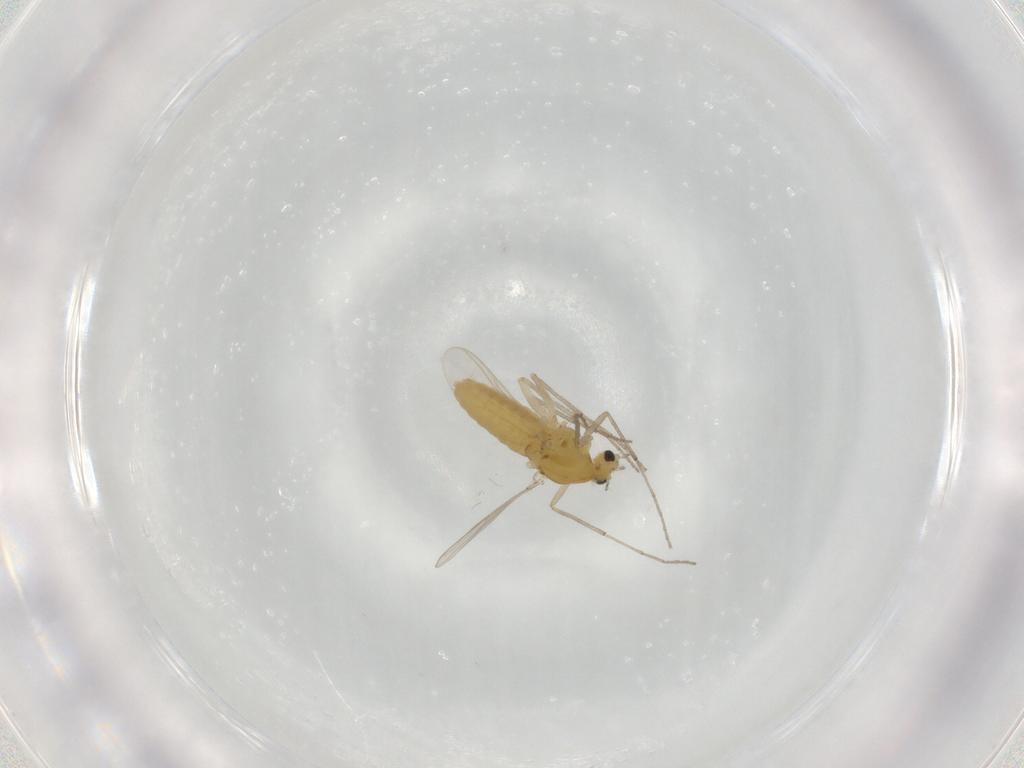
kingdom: Animalia
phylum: Arthropoda
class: Insecta
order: Diptera
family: Chironomidae
